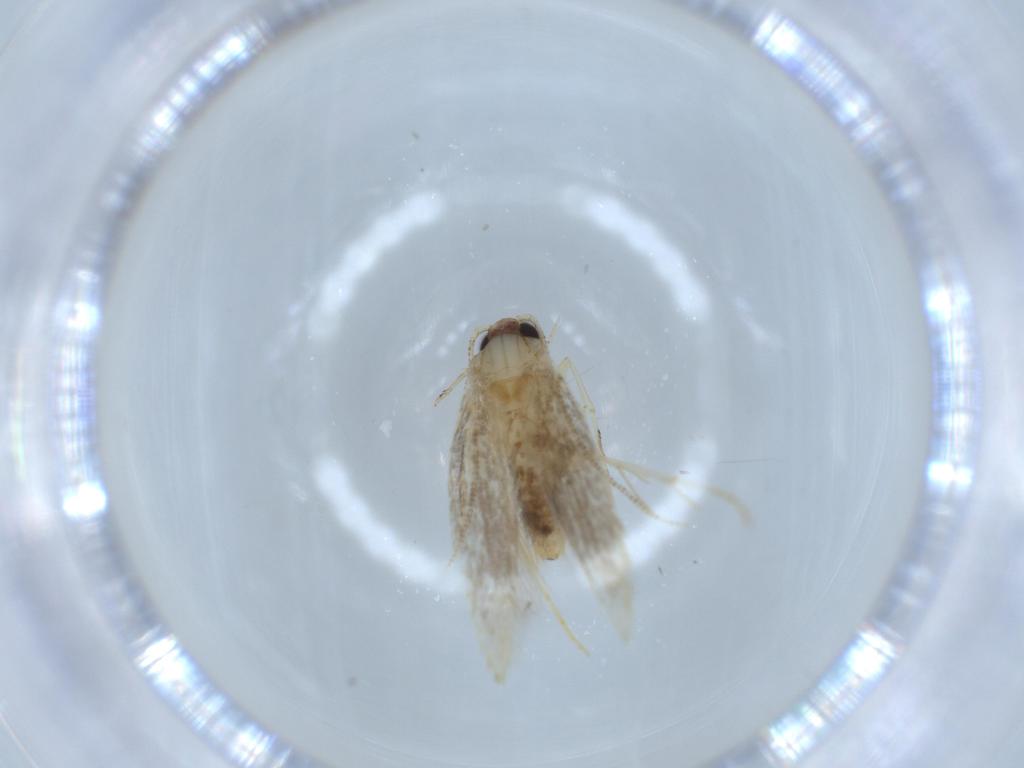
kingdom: Animalia
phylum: Arthropoda
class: Insecta
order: Lepidoptera
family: Tineidae
